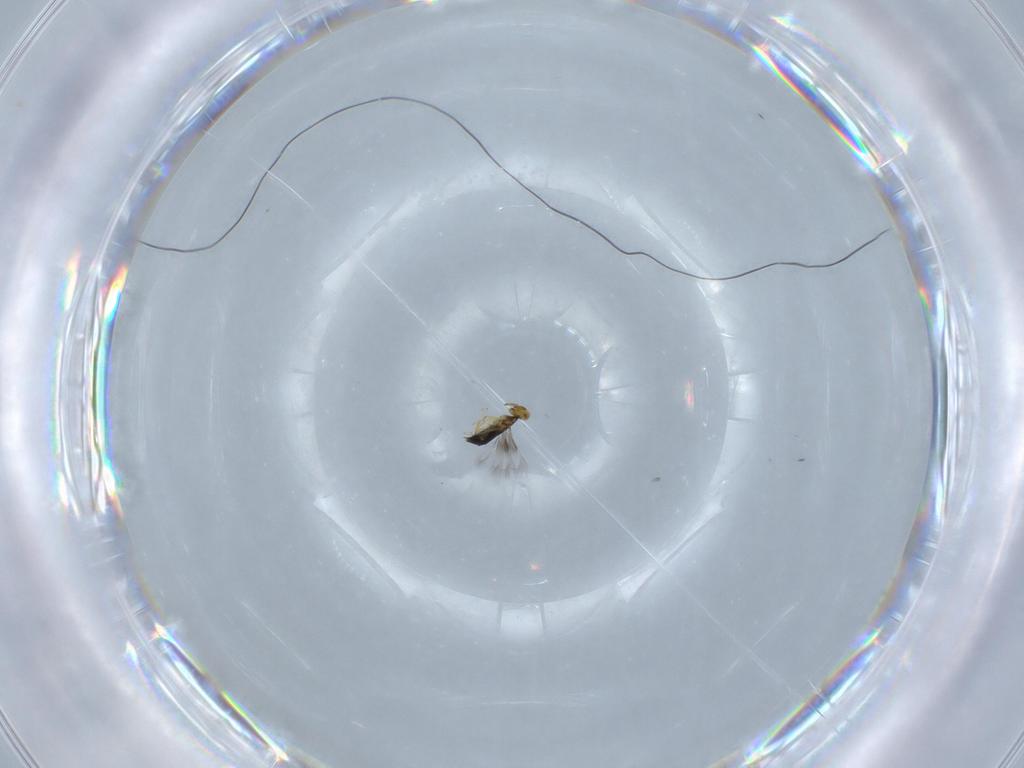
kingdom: Animalia
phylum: Arthropoda
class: Insecta
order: Hymenoptera
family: Signiphoridae
